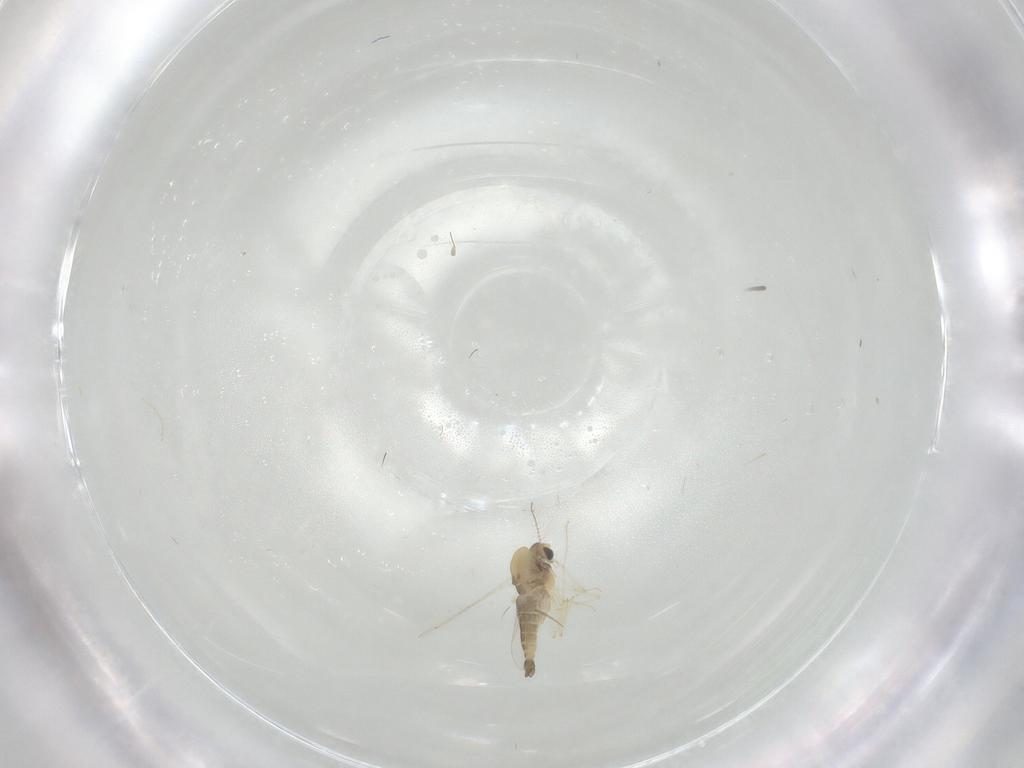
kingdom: Animalia
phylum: Arthropoda
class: Insecta
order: Diptera
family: Chironomidae
